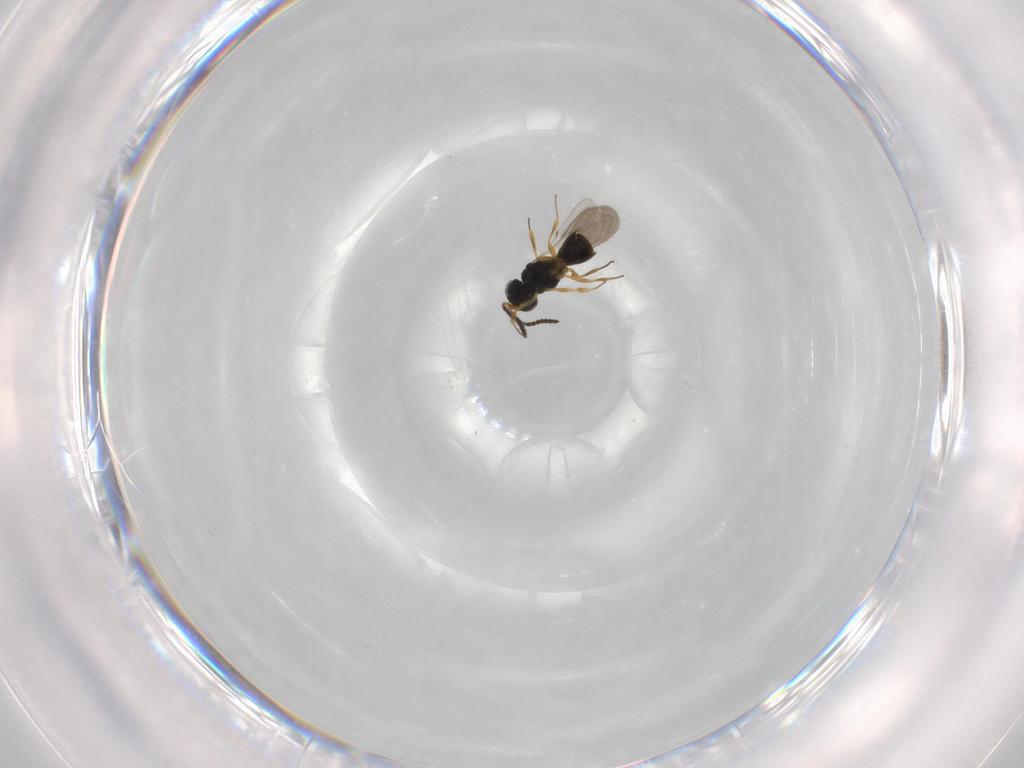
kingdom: Animalia
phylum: Arthropoda
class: Insecta
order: Hymenoptera
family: Scelionidae
